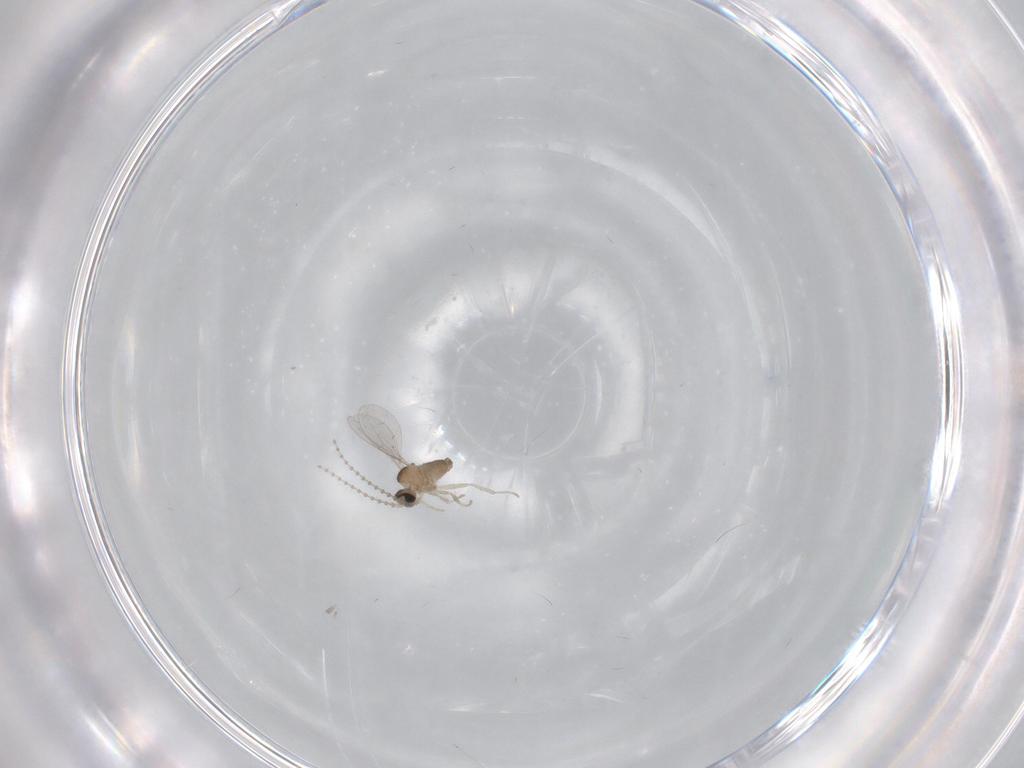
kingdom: Animalia
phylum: Arthropoda
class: Insecta
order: Diptera
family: Cecidomyiidae
